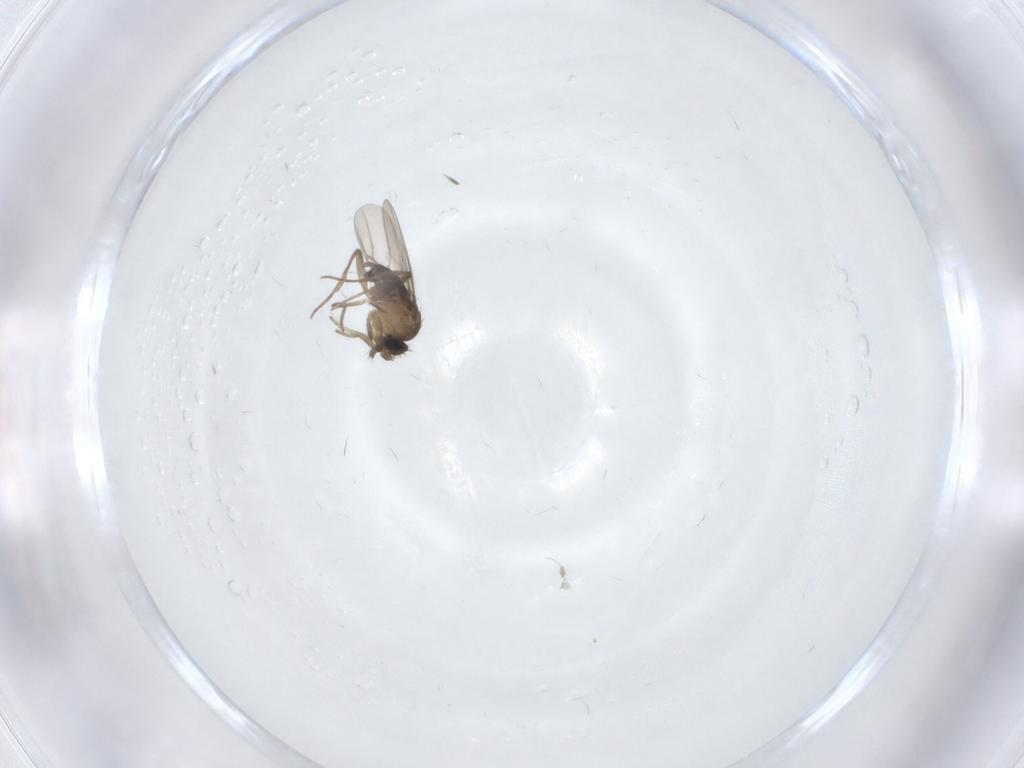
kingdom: Animalia
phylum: Arthropoda
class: Insecta
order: Diptera
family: Phoridae
